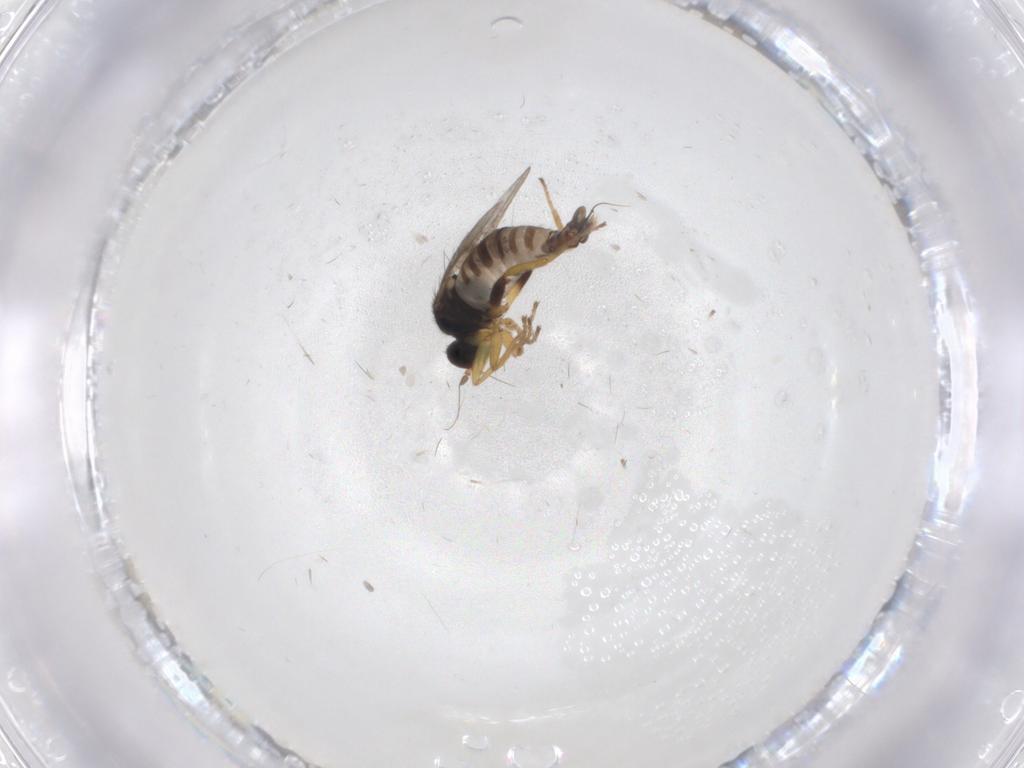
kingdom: Animalia
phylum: Arthropoda
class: Insecta
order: Diptera
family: Hybotidae
